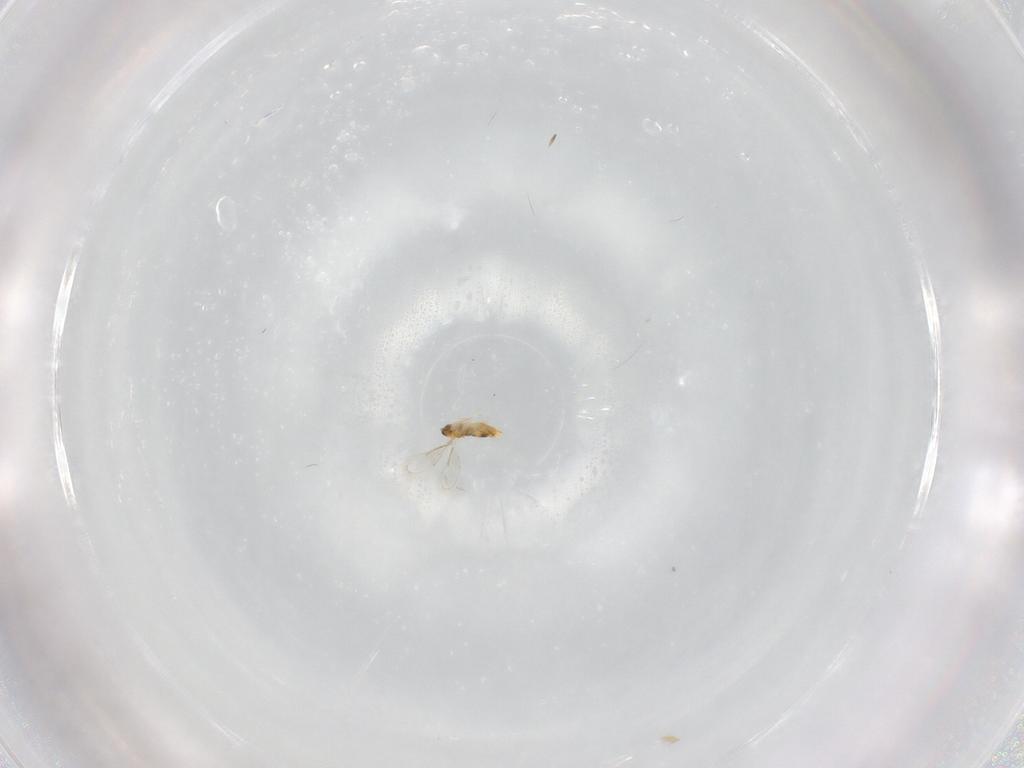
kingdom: Animalia
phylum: Arthropoda
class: Insecta
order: Hymenoptera
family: Aphelinidae
